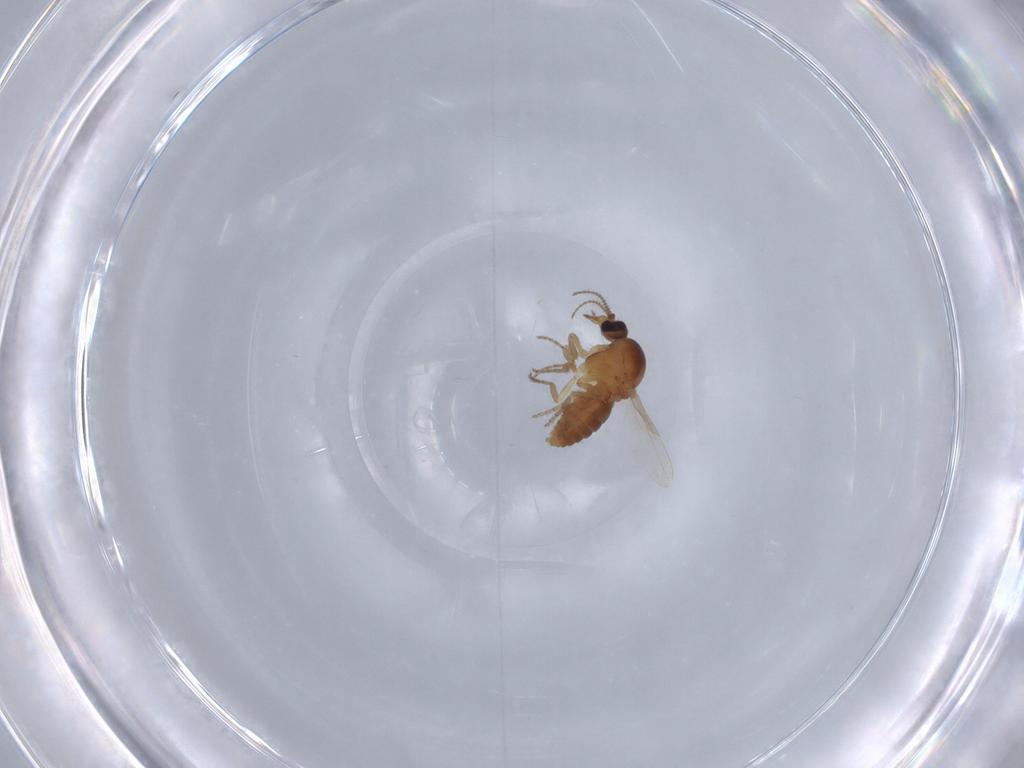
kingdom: Animalia
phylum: Arthropoda
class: Insecta
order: Diptera
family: Ceratopogonidae
